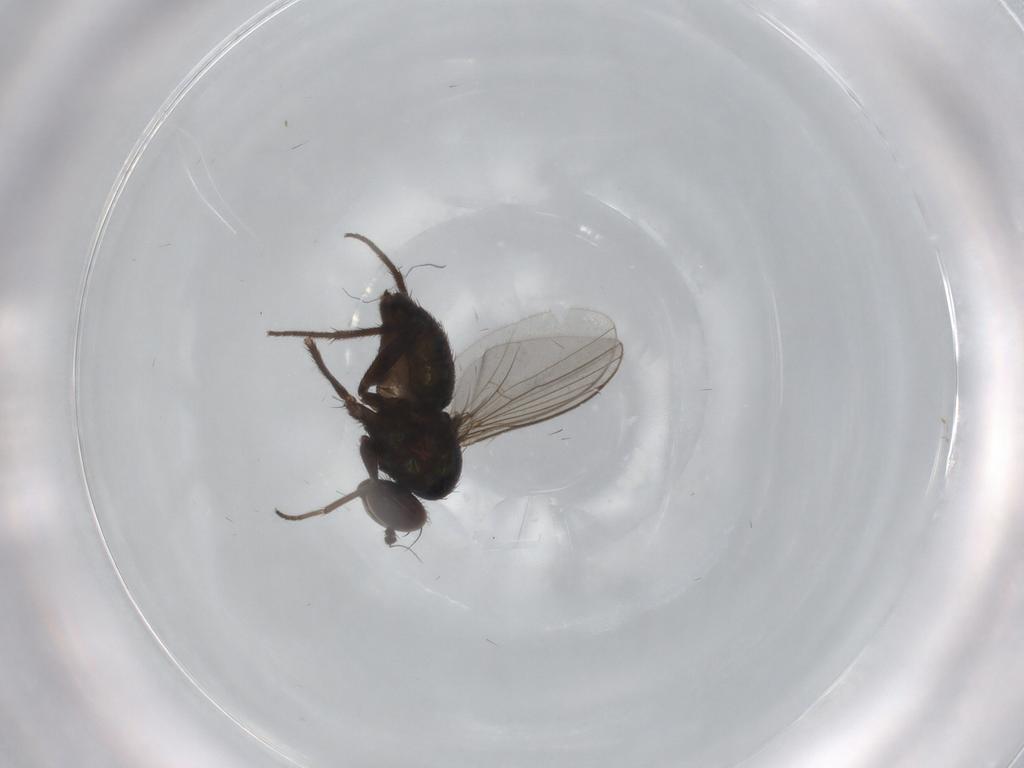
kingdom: Animalia
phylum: Arthropoda
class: Insecta
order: Diptera
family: Dolichopodidae
